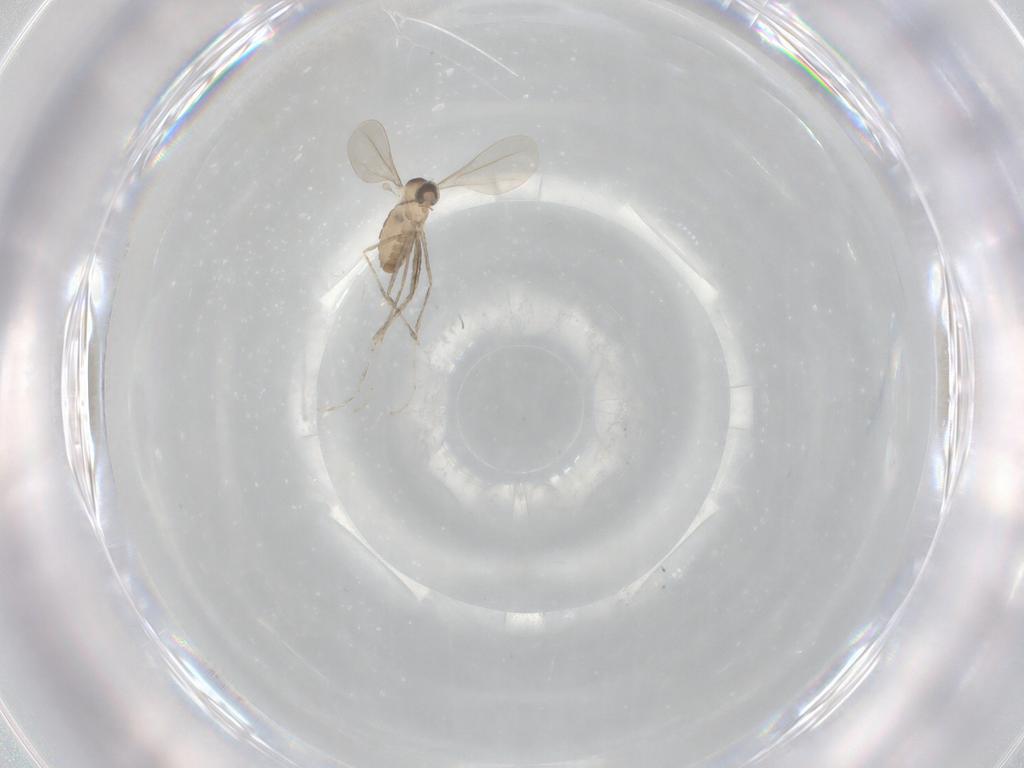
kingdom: Animalia
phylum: Arthropoda
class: Insecta
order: Diptera
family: Cecidomyiidae
